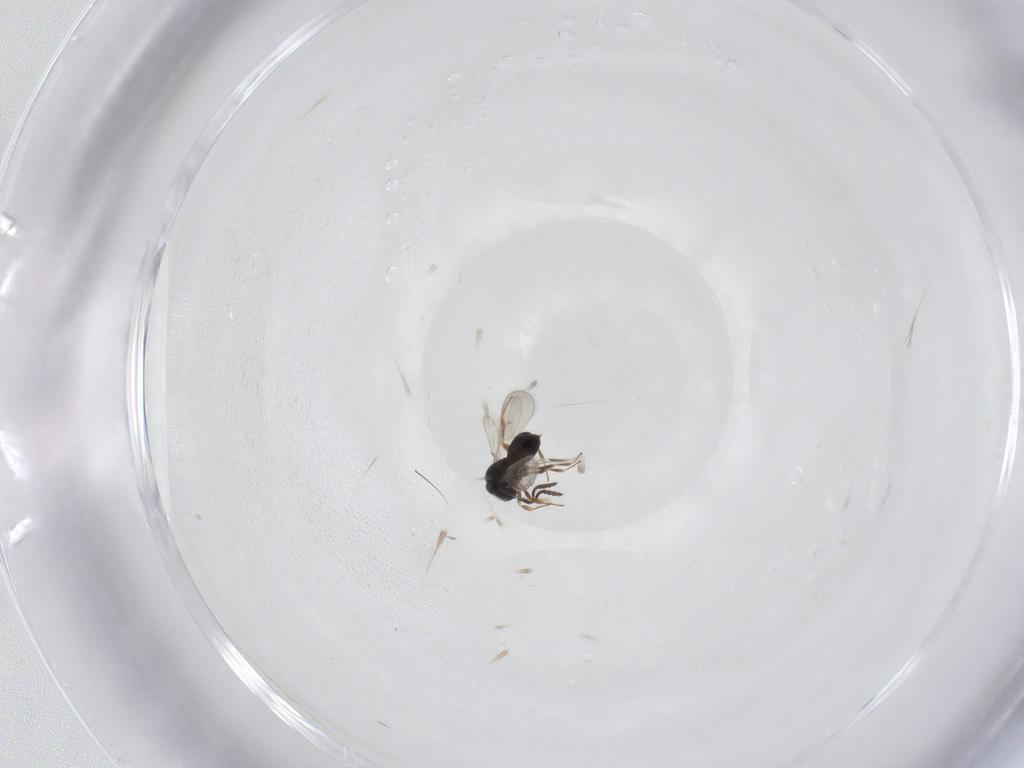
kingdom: Animalia
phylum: Arthropoda
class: Insecta
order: Hymenoptera
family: Scelionidae
